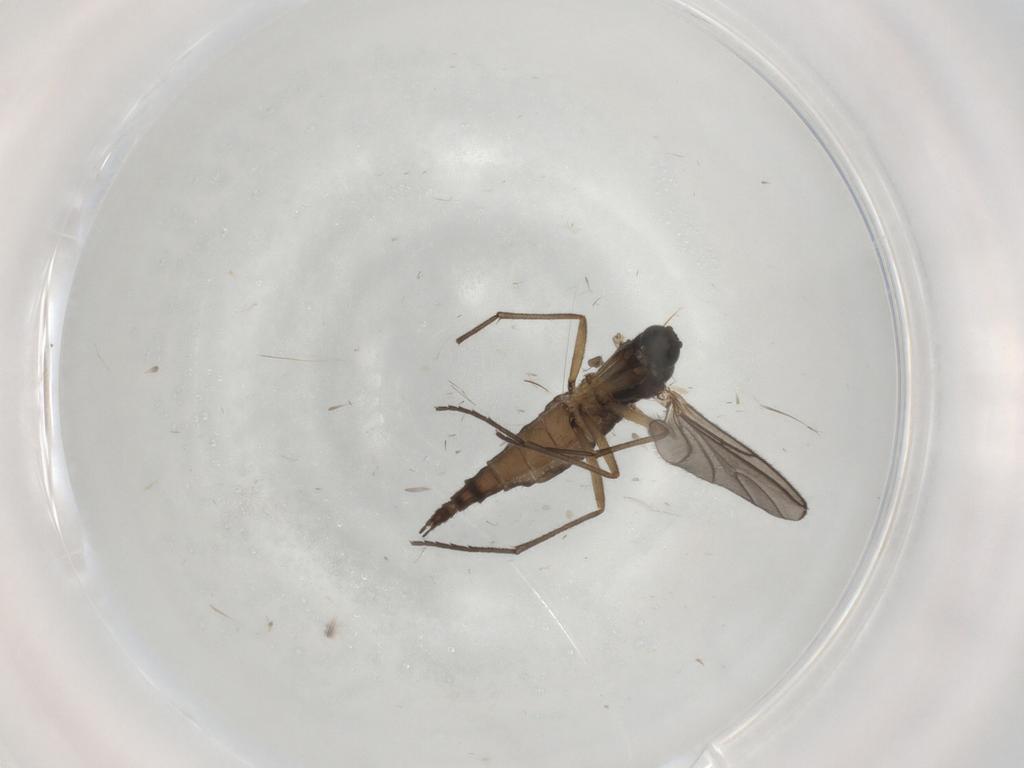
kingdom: Animalia
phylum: Arthropoda
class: Insecta
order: Diptera
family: Sciaridae
